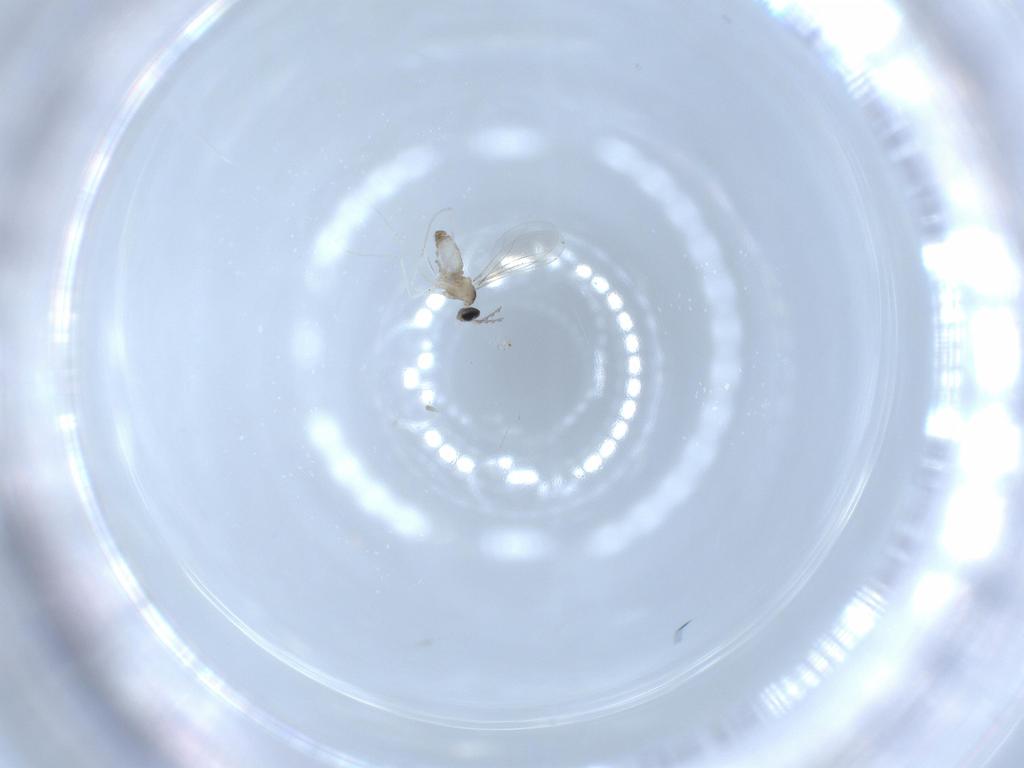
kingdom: Animalia
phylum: Arthropoda
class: Insecta
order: Diptera
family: Cecidomyiidae
